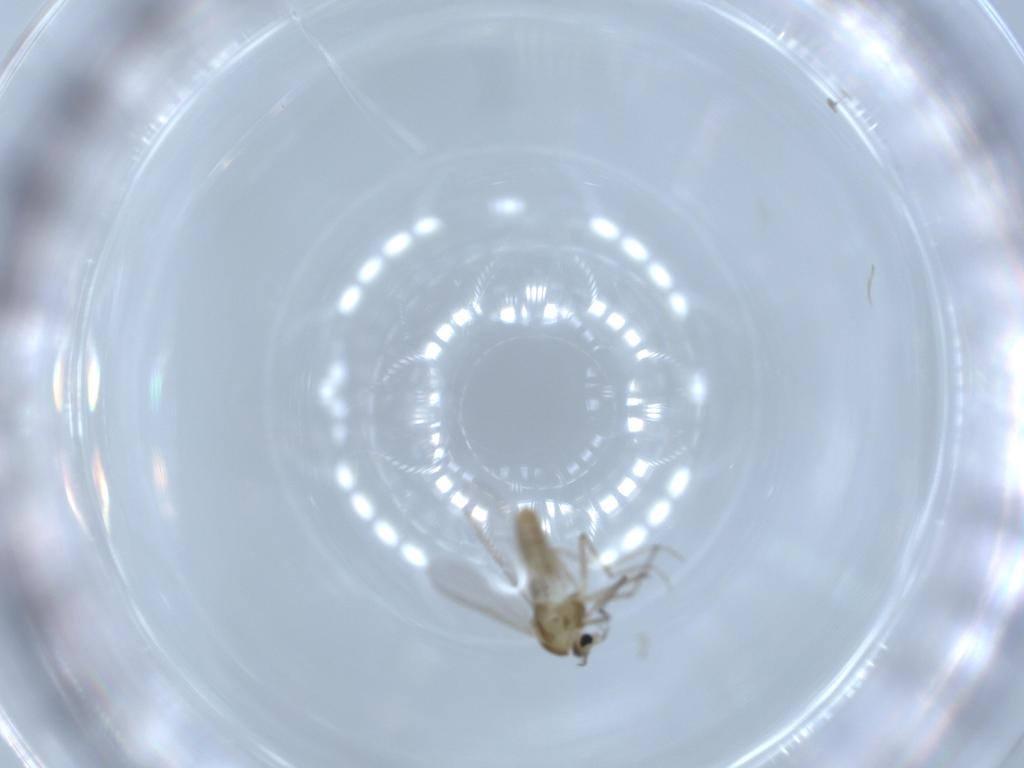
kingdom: Animalia
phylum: Arthropoda
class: Insecta
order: Diptera
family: Chironomidae
